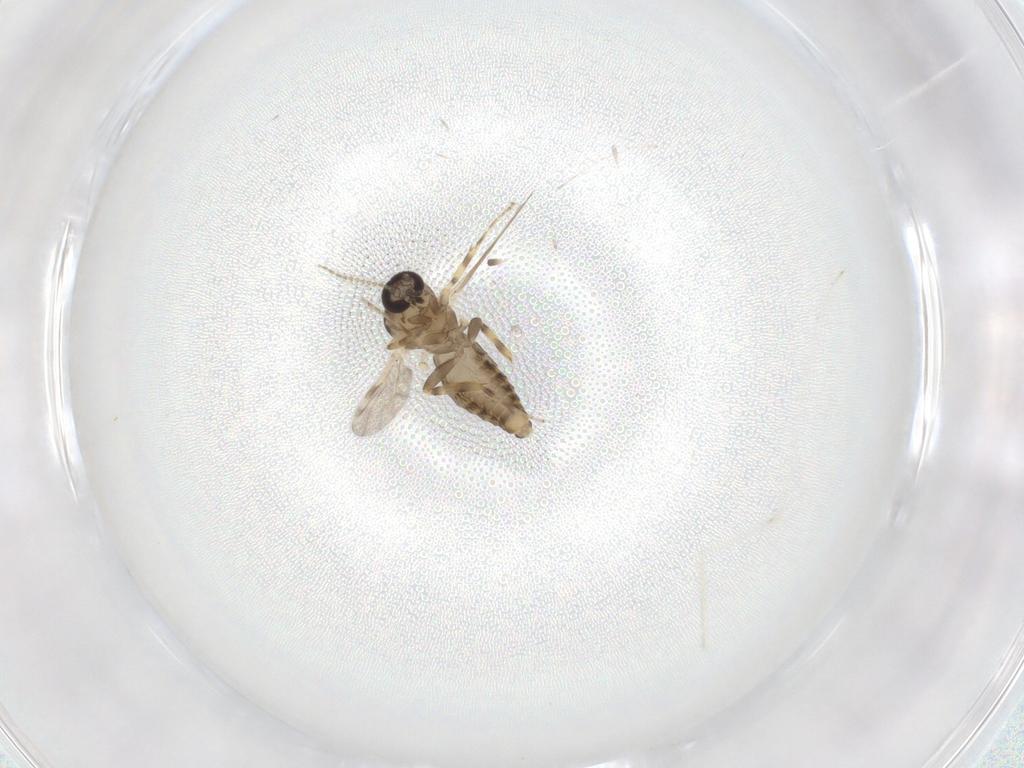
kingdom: Animalia
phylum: Arthropoda
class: Insecta
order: Diptera
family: Ceratopogonidae
